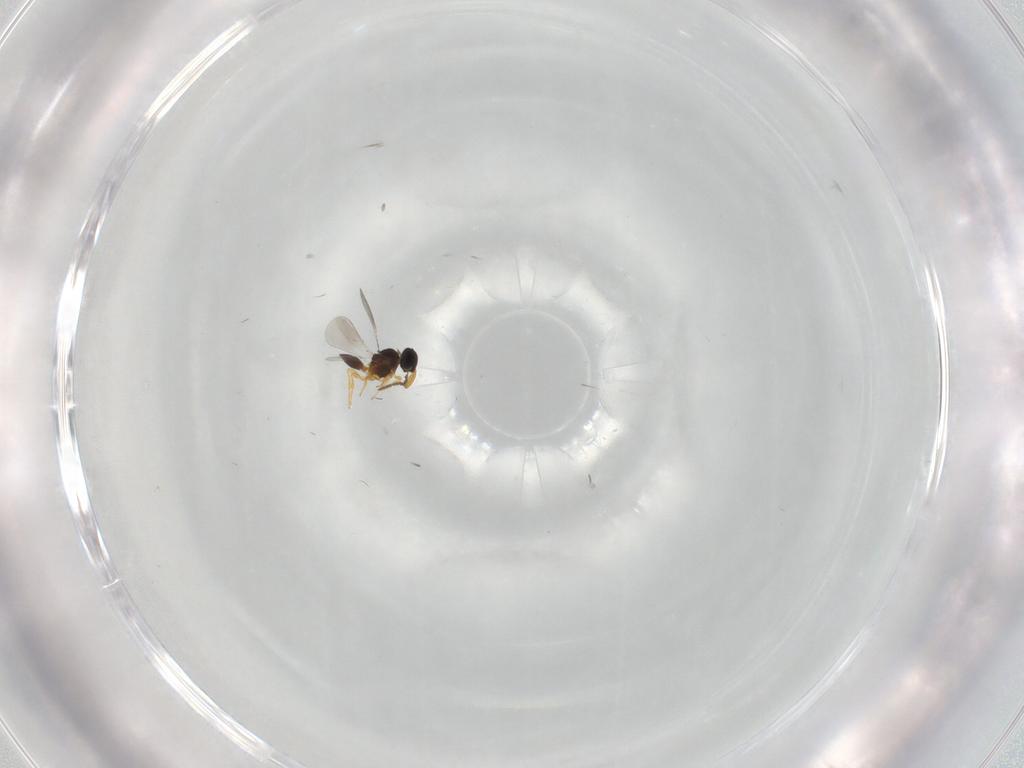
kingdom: Animalia
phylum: Arthropoda
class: Insecta
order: Hymenoptera
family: Platygastridae
